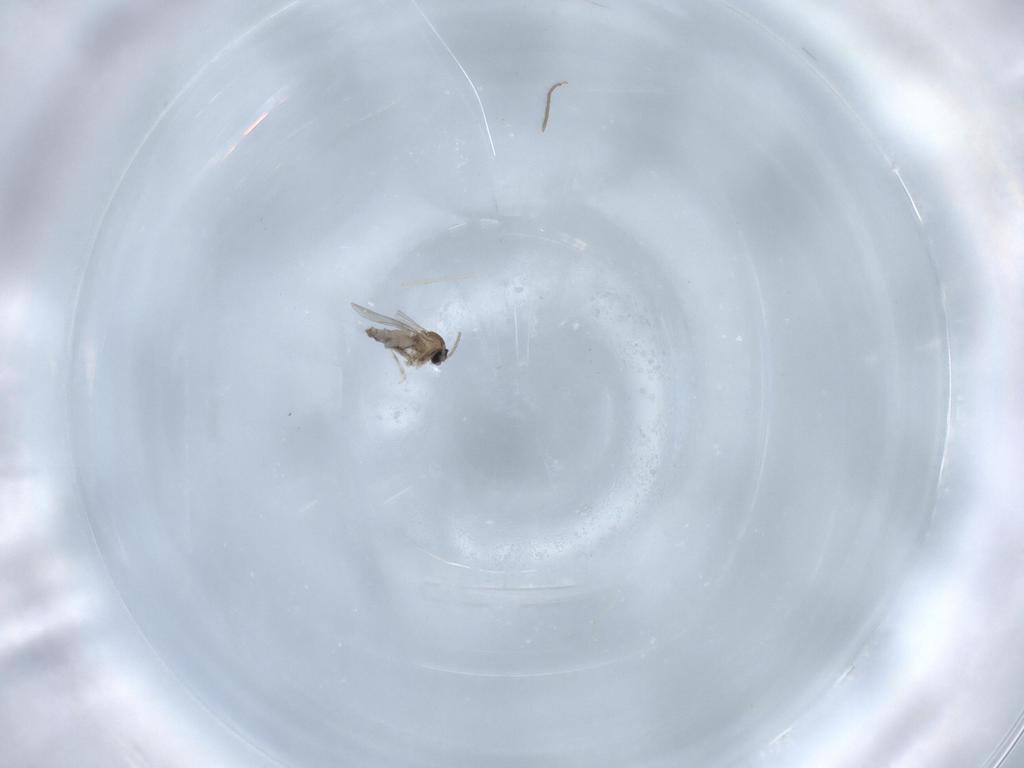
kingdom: Animalia
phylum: Arthropoda
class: Insecta
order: Diptera
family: Cecidomyiidae
